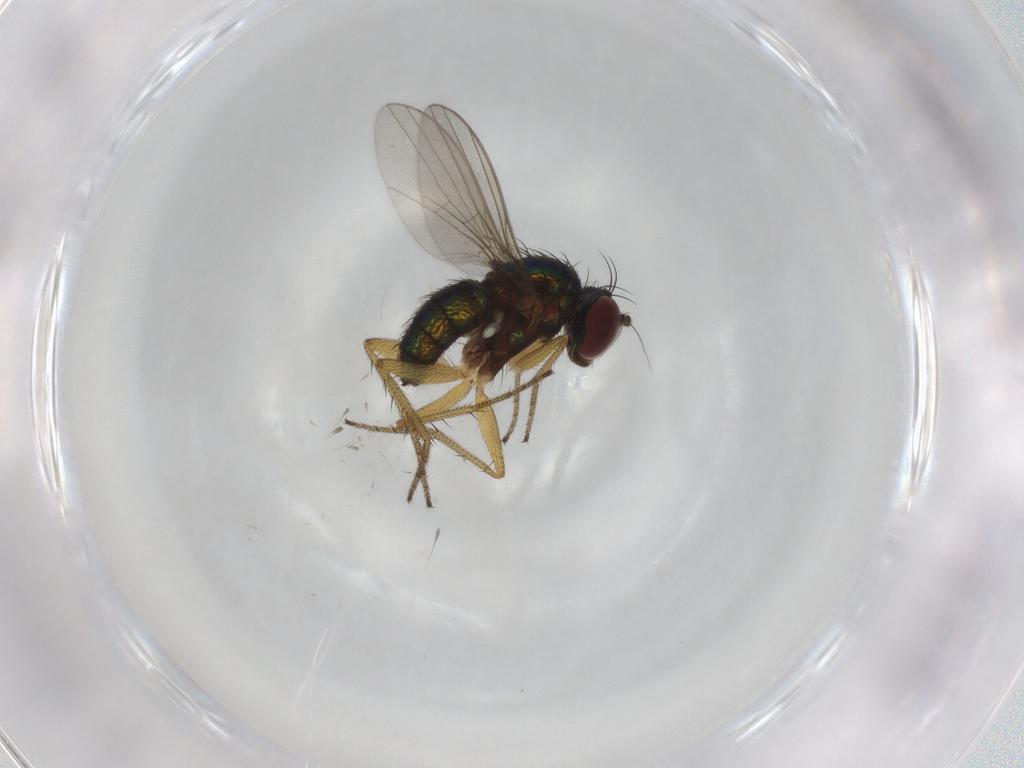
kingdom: Animalia
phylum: Arthropoda
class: Insecta
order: Diptera
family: Dolichopodidae
